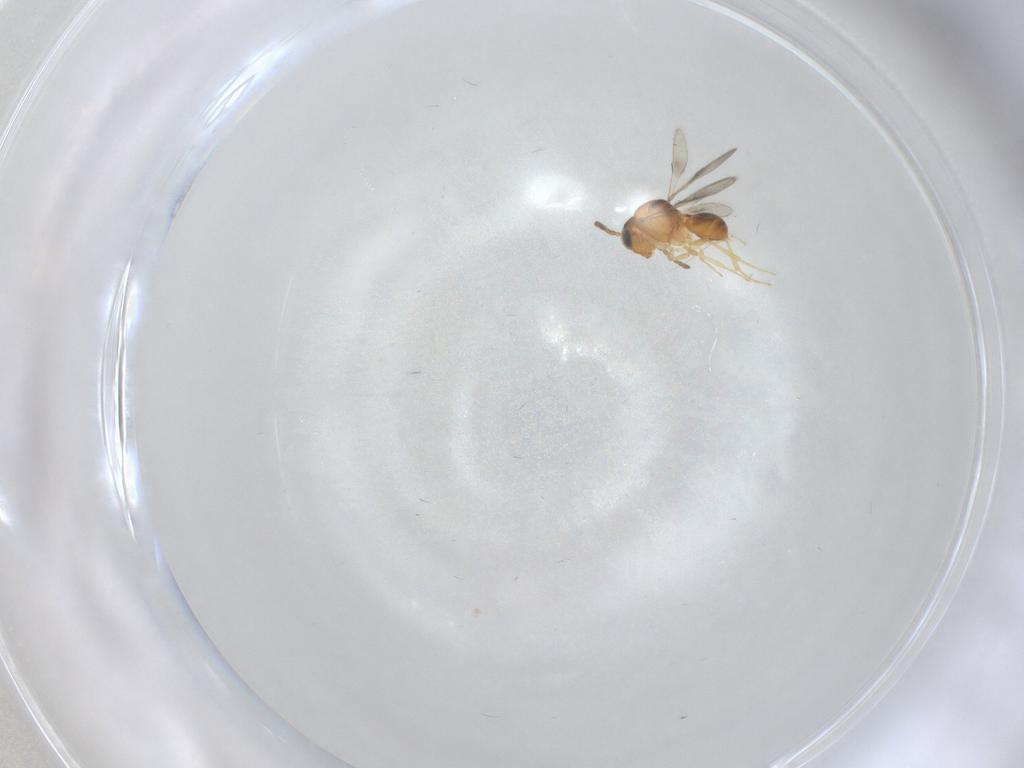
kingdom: Animalia
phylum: Arthropoda
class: Insecta
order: Hymenoptera
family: Scelionidae
